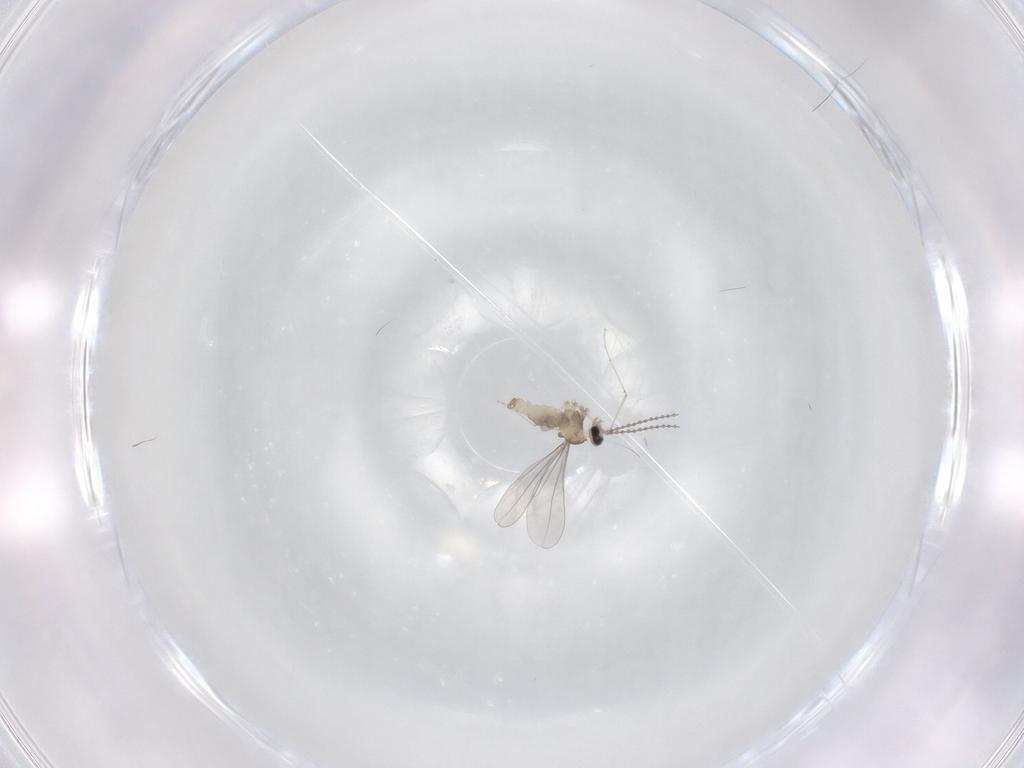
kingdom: Animalia
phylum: Arthropoda
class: Insecta
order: Diptera
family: Cecidomyiidae
